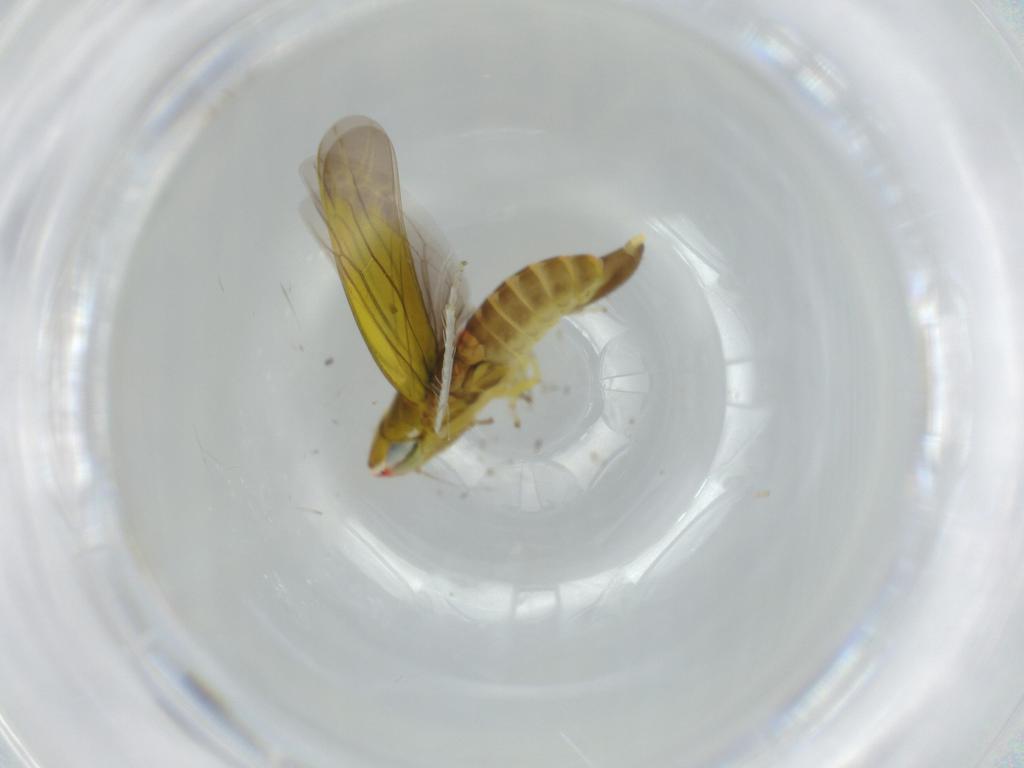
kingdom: Animalia
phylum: Arthropoda
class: Insecta
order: Hemiptera
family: Cicadellidae
